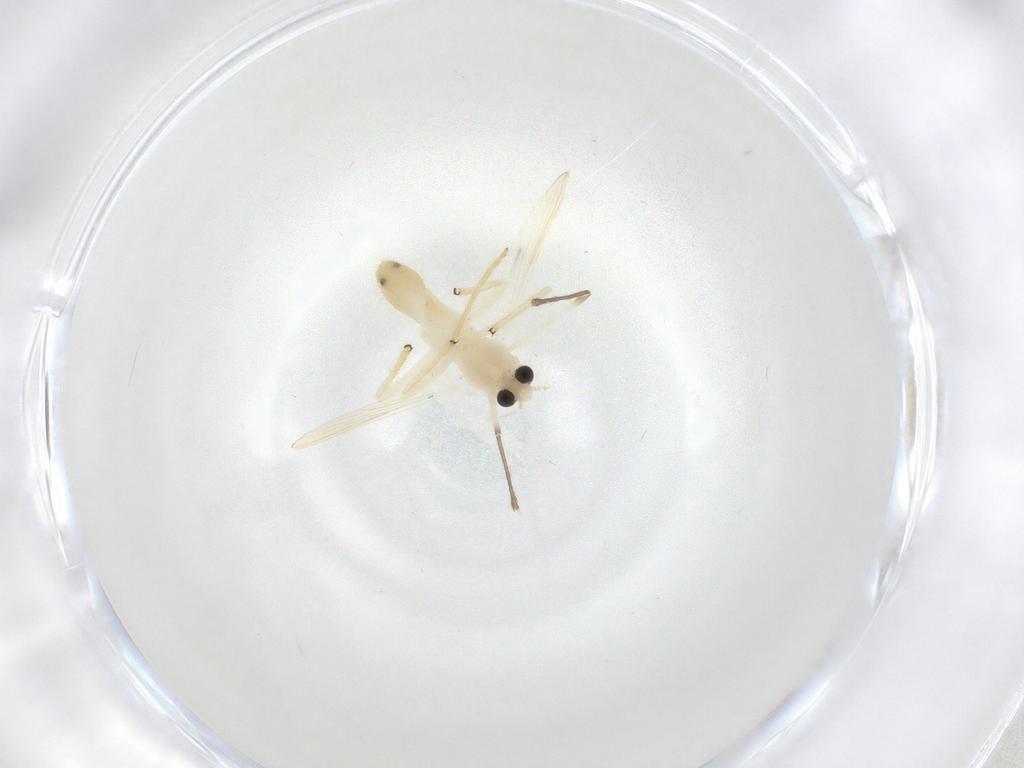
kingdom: Animalia
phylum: Arthropoda
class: Insecta
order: Diptera
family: Chironomidae
